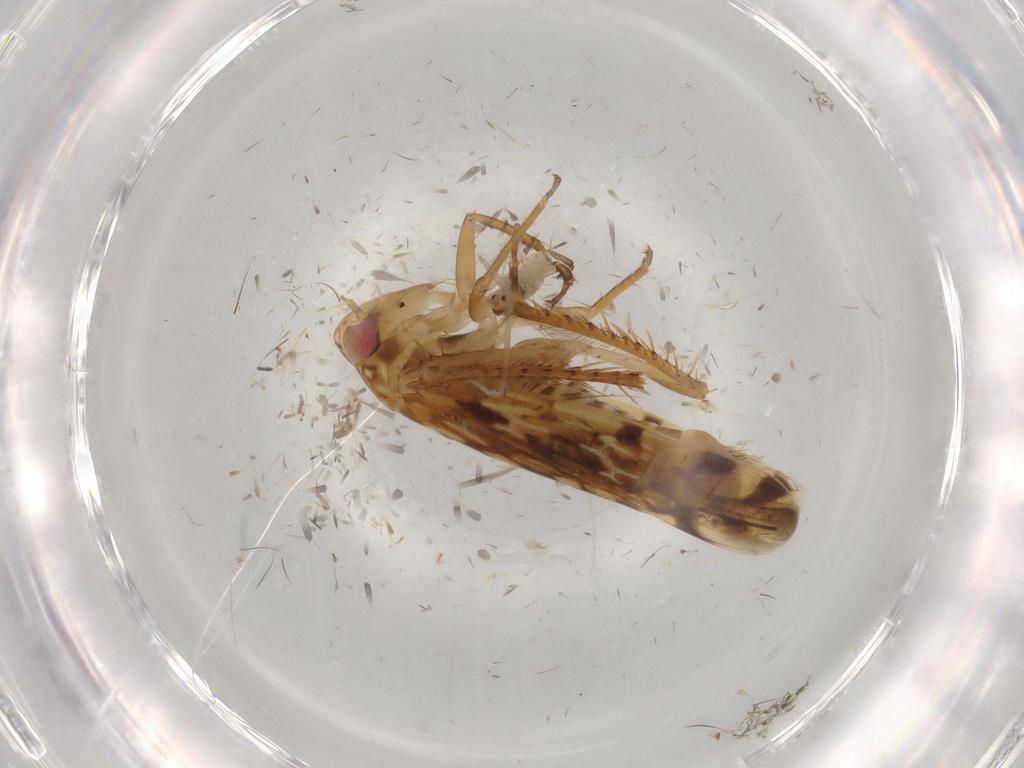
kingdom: Animalia
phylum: Arthropoda
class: Insecta
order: Hemiptera
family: Cicadellidae
